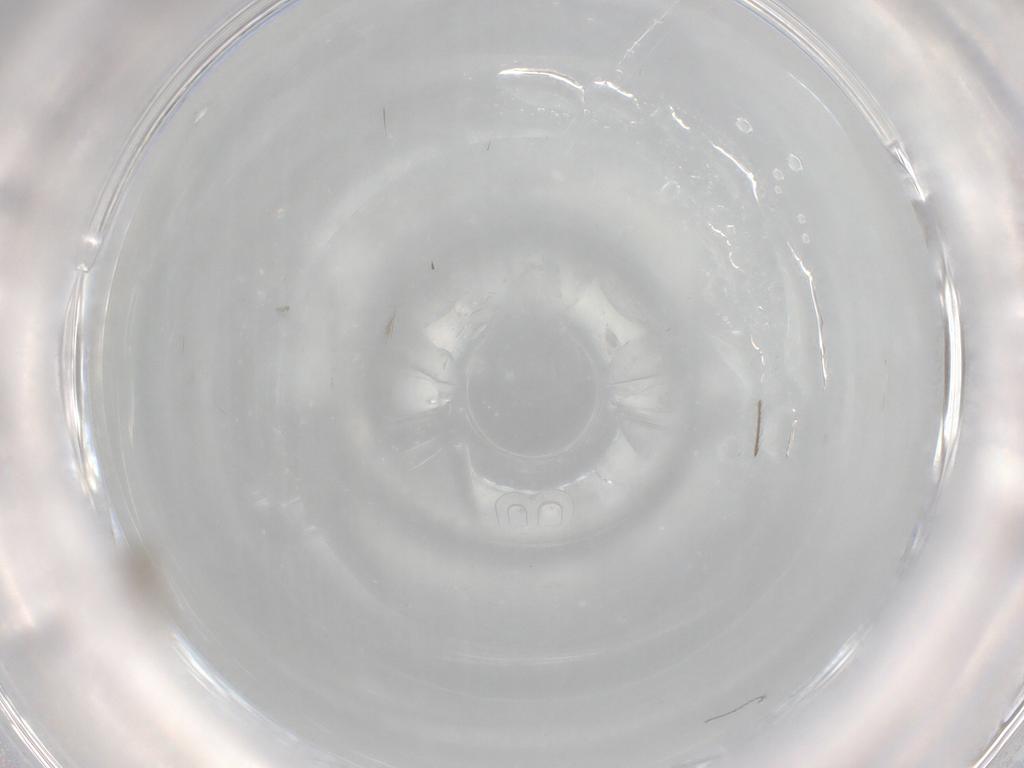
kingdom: Animalia
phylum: Arthropoda
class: Insecta
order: Diptera
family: Cecidomyiidae
